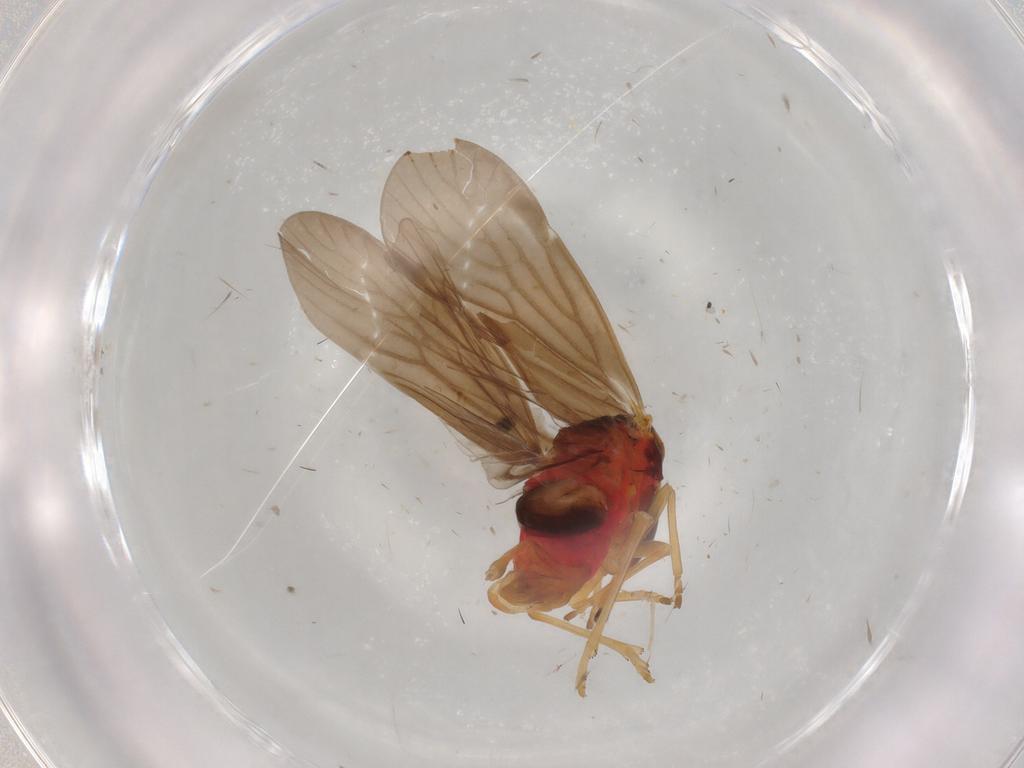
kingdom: Animalia
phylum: Arthropoda
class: Insecta
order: Hemiptera
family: Derbidae
